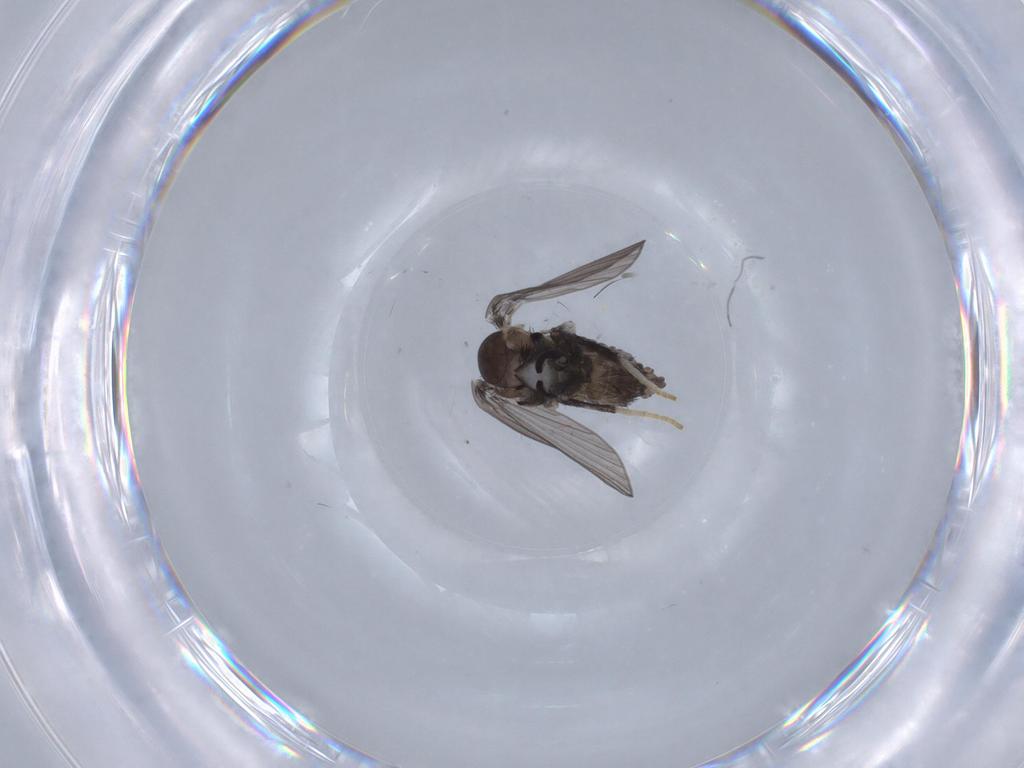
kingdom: Animalia
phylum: Arthropoda
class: Insecta
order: Diptera
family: Psychodidae
